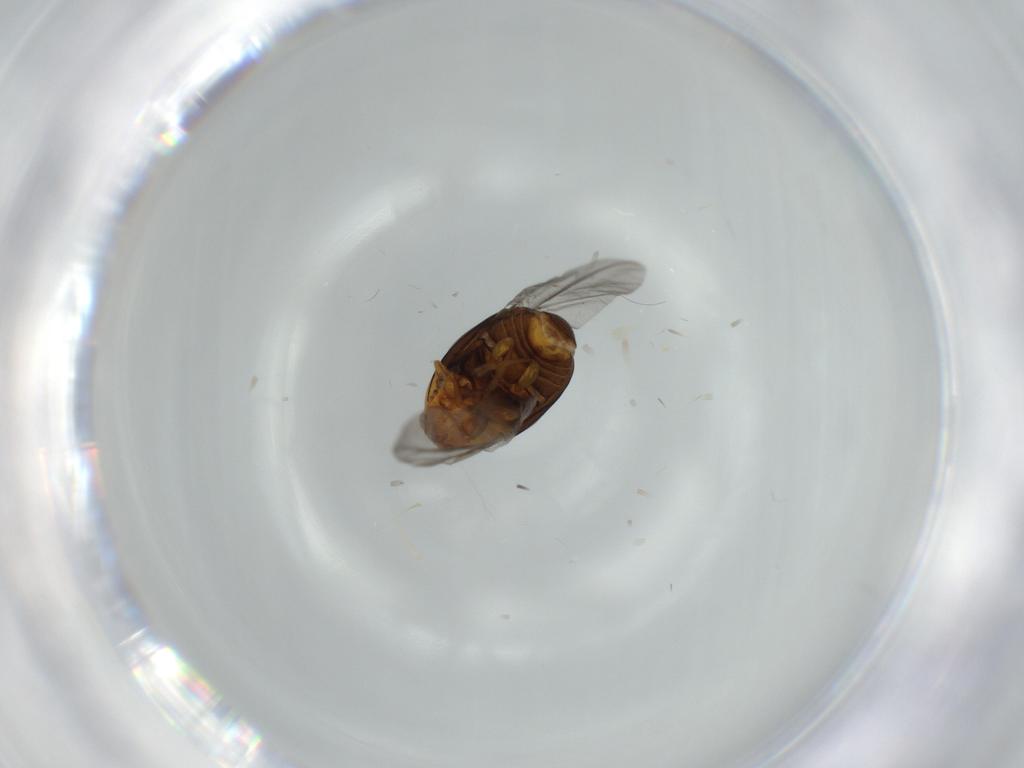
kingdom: Animalia
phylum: Arthropoda
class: Insecta
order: Coleoptera
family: Chrysomelidae
